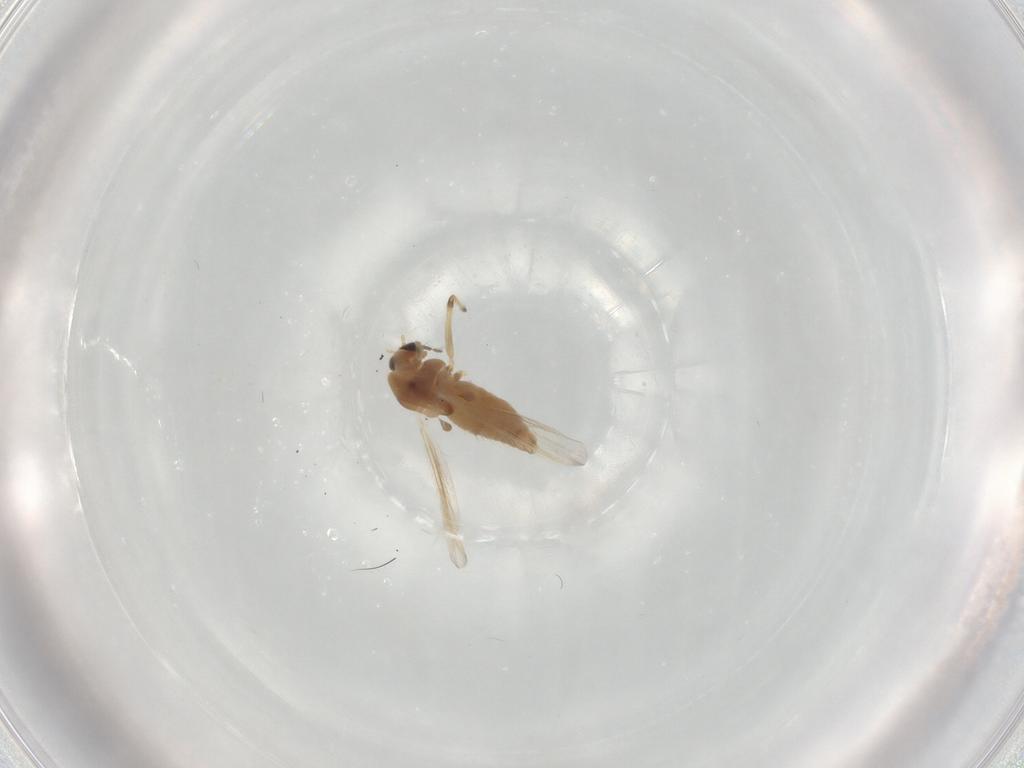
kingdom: Animalia
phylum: Arthropoda
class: Insecta
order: Diptera
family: Chironomidae
